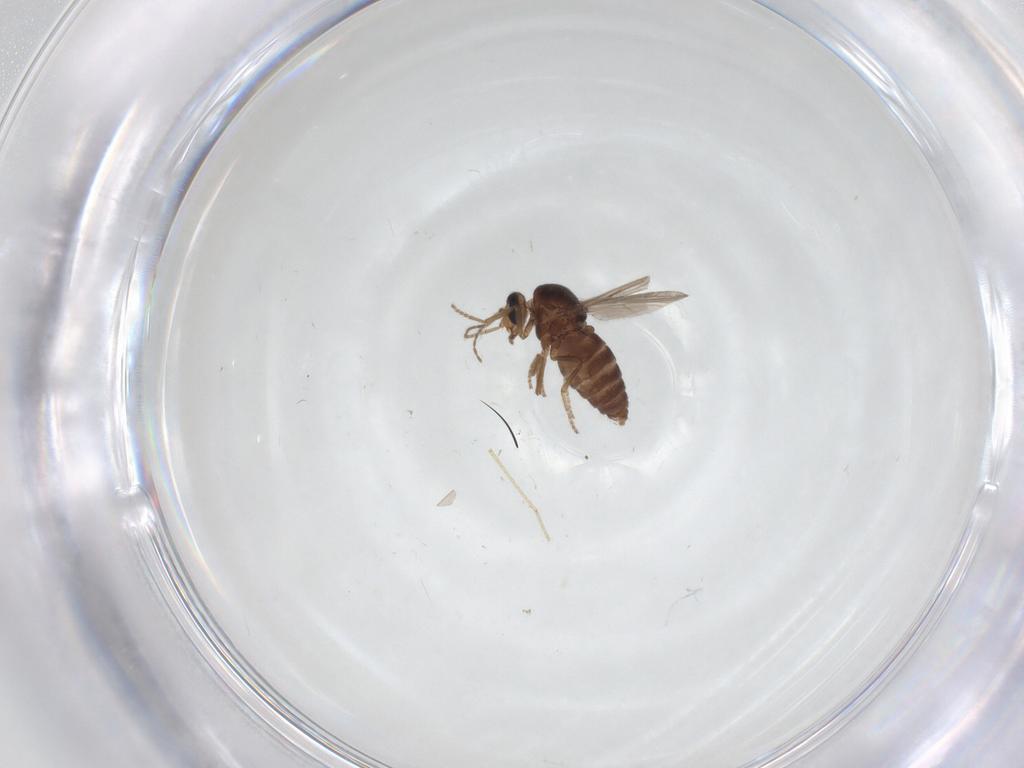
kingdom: Animalia
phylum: Arthropoda
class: Insecta
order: Diptera
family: Ceratopogonidae
